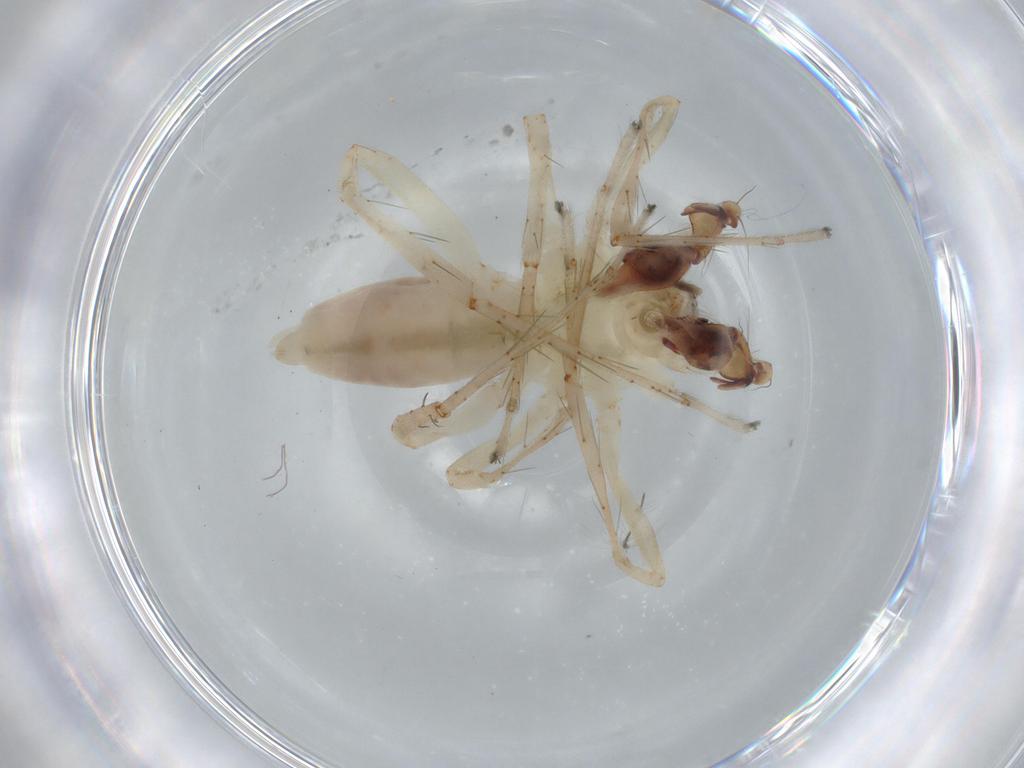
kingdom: Animalia
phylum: Arthropoda
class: Arachnida
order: Araneae
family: Anyphaenidae
